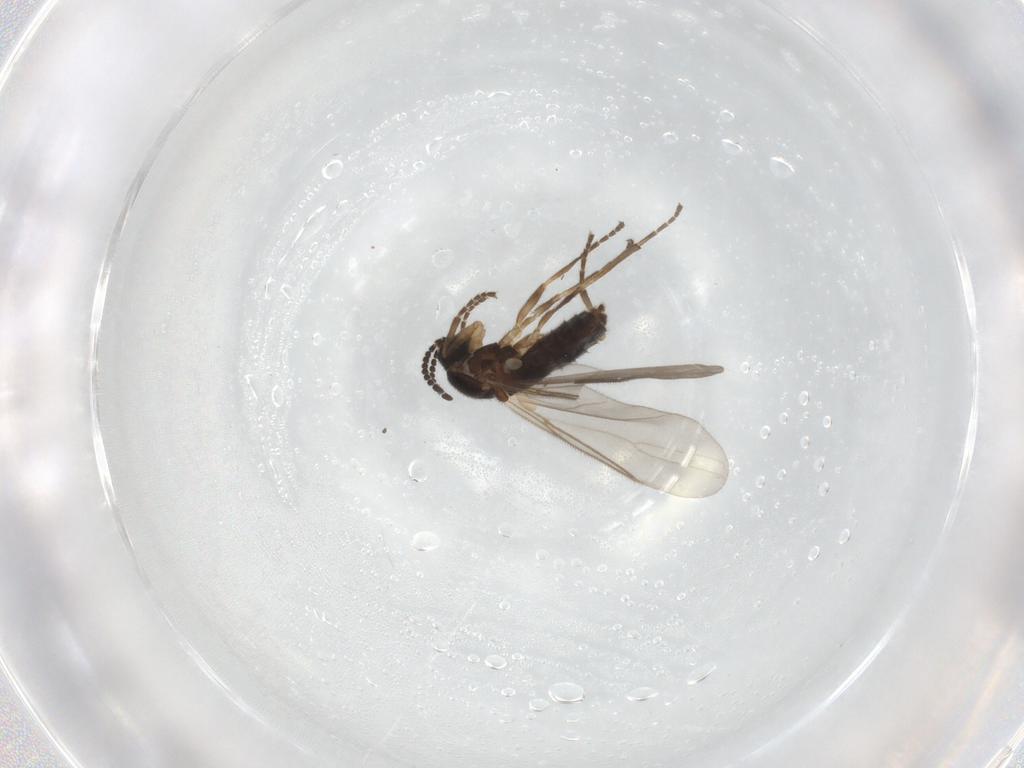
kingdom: Animalia
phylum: Arthropoda
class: Insecta
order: Diptera
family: Scatopsidae
